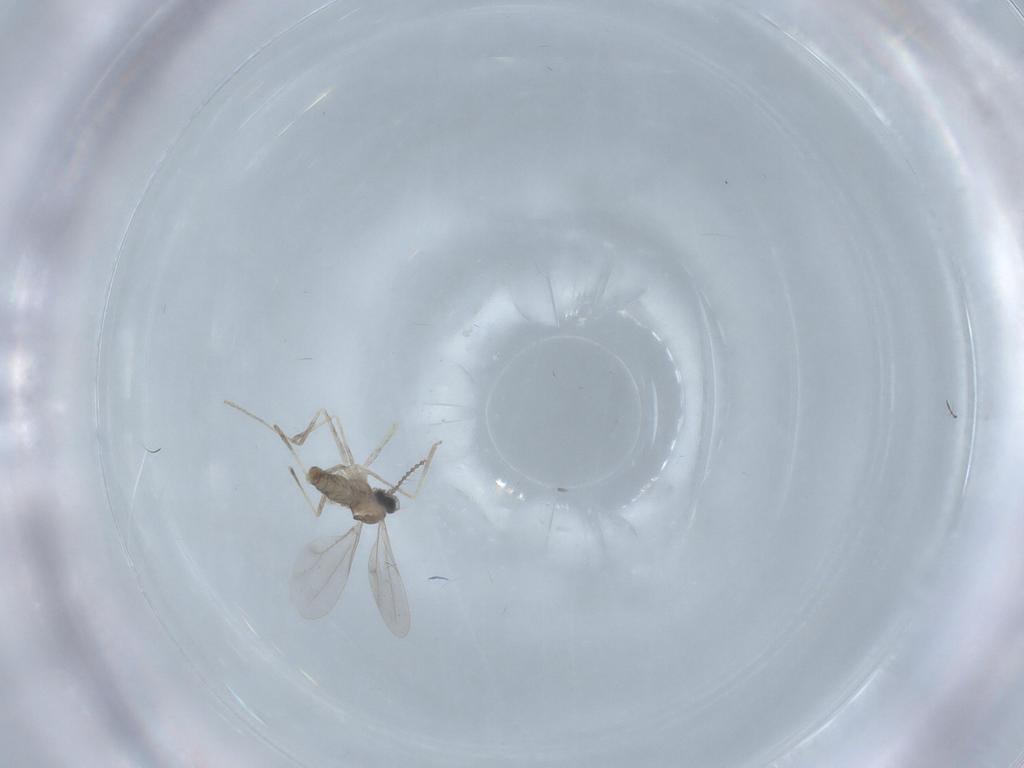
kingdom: Animalia
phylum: Arthropoda
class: Insecta
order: Diptera
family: Cecidomyiidae
